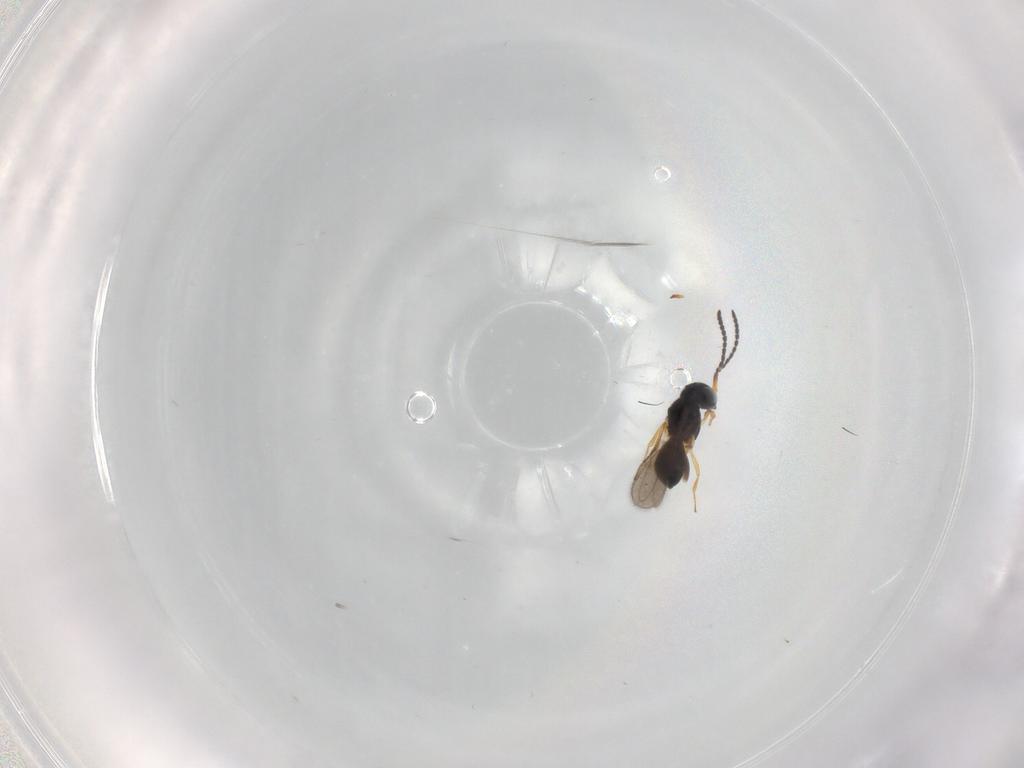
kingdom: Animalia
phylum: Arthropoda
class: Insecta
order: Hymenoptera
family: Scelionidae
